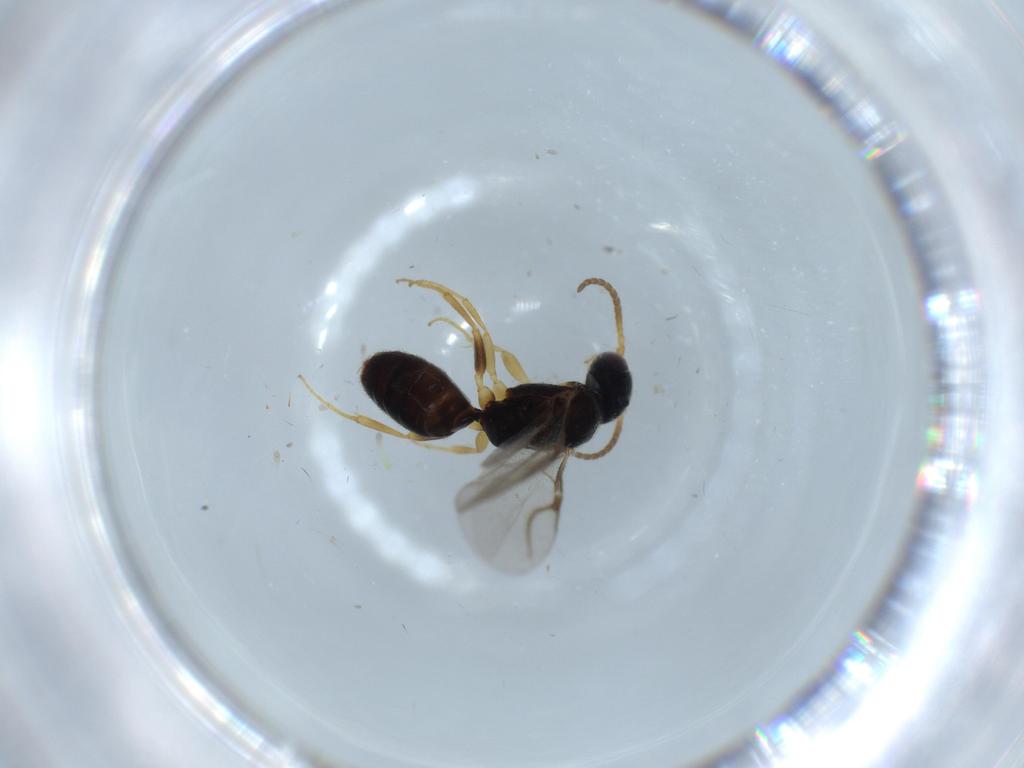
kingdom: Animalia
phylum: Arthropoda
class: Insecta
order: Hymenoptera
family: Bethylidae
